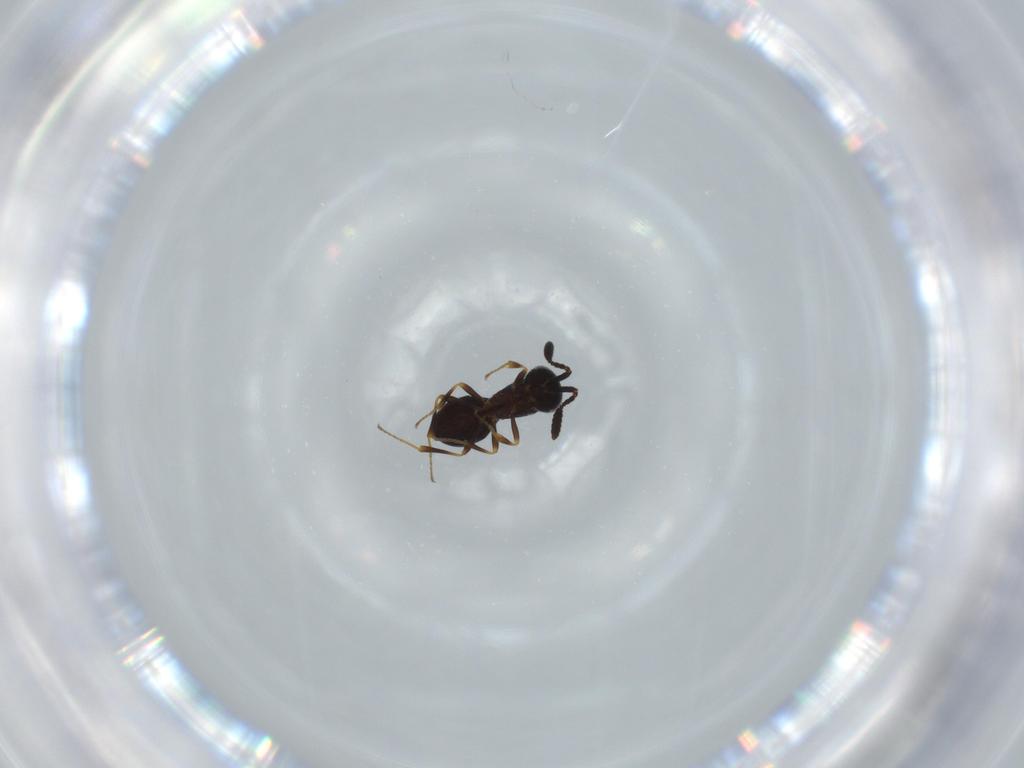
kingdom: Animalia
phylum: Arthropoda
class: Insecta
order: Hymenoptera
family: Scelionidae
